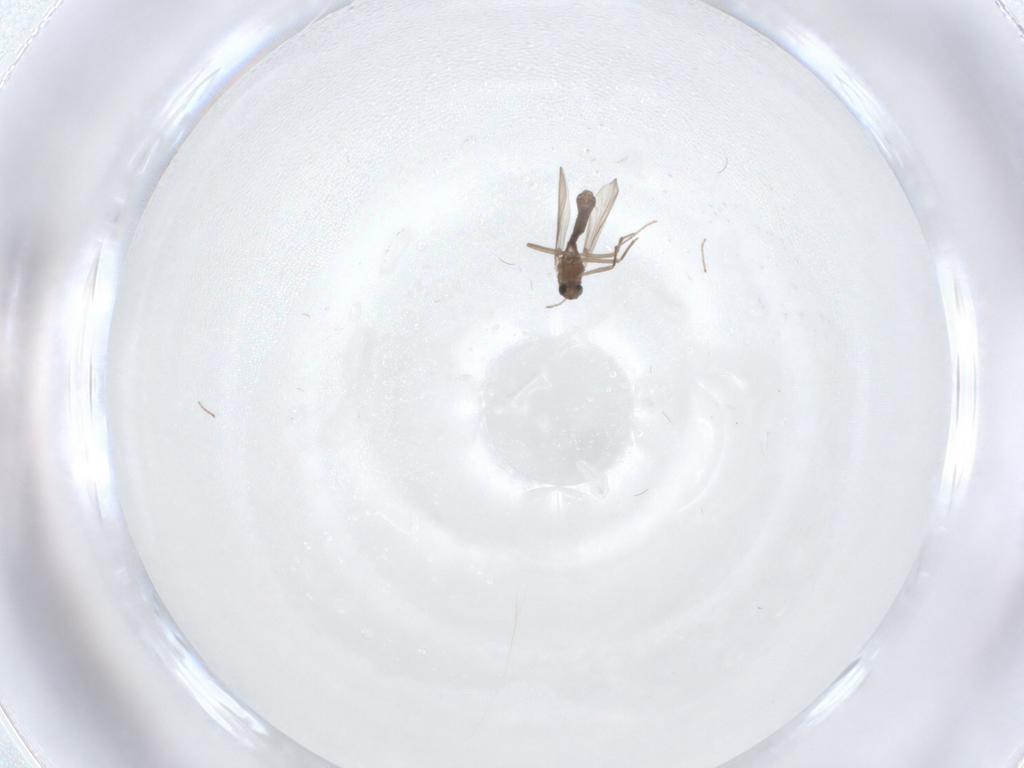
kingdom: Animalia
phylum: Arthropoda
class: Insecta
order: Diptera
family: Chironomidae
